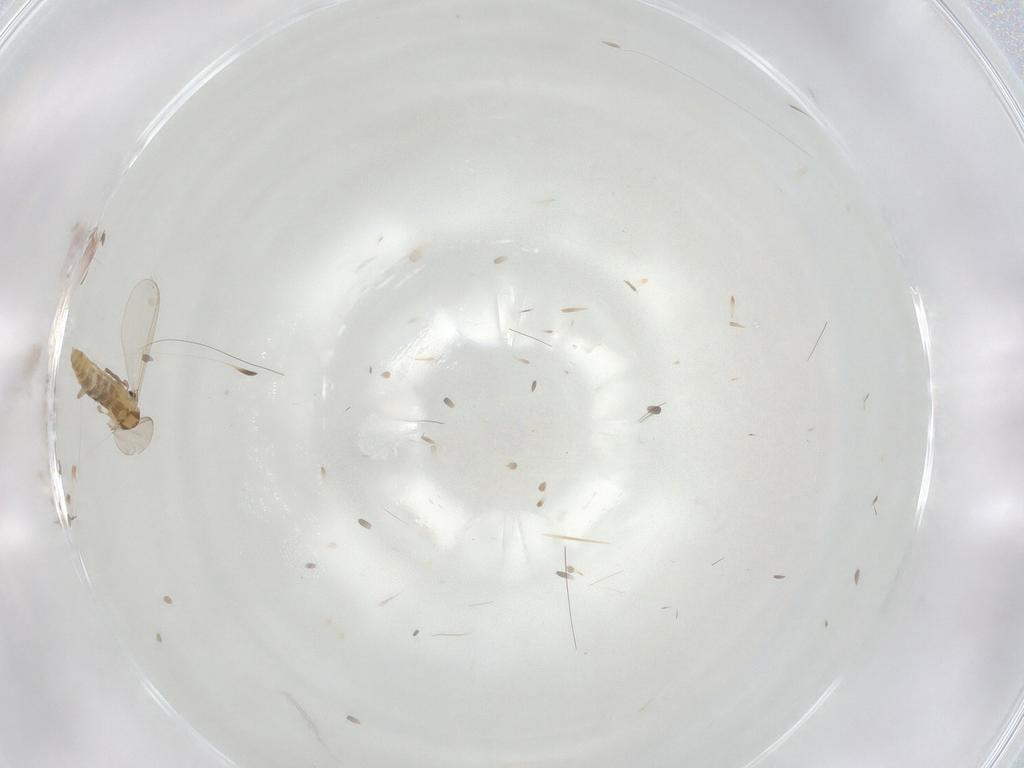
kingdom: Animalia
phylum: Arthropoda
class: Insecta
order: Diptera
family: Chironomidae
